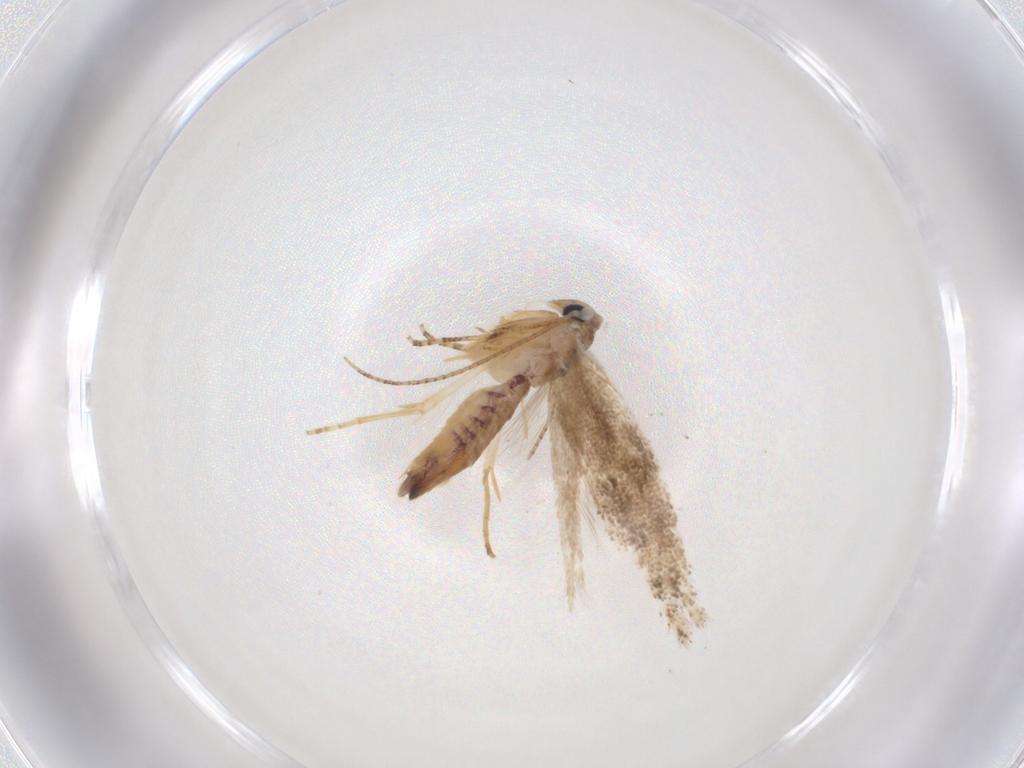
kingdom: Animalia
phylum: Arthropoda
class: Insecta
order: Lepidoptera
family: Bucculatricidae
